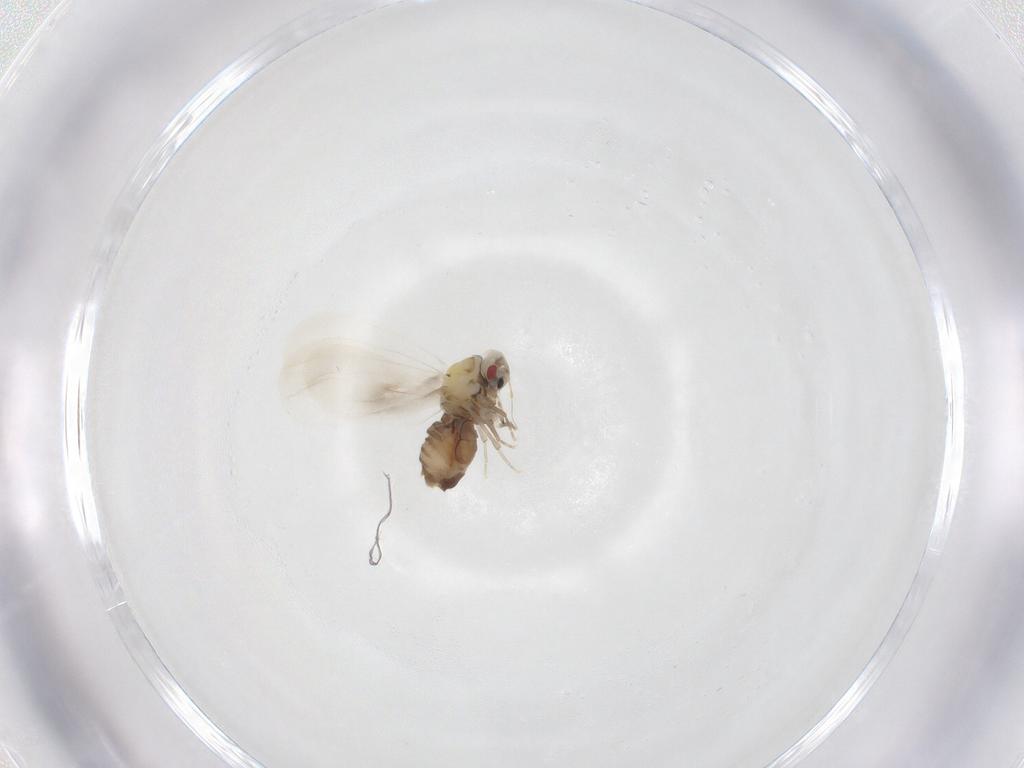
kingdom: Animalia
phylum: Arthropoda
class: Insecta
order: Hemiptera
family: Aleyrodidae
